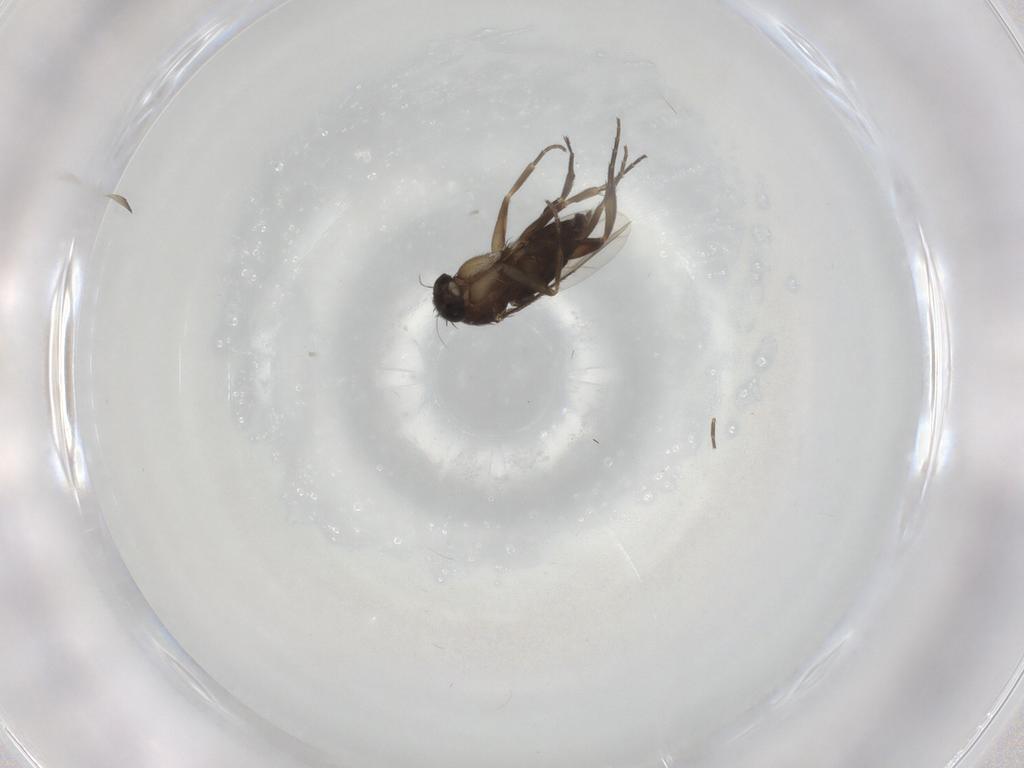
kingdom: Animalia
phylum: Arthropoda
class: Insecta
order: Diptera
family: Phoridae
